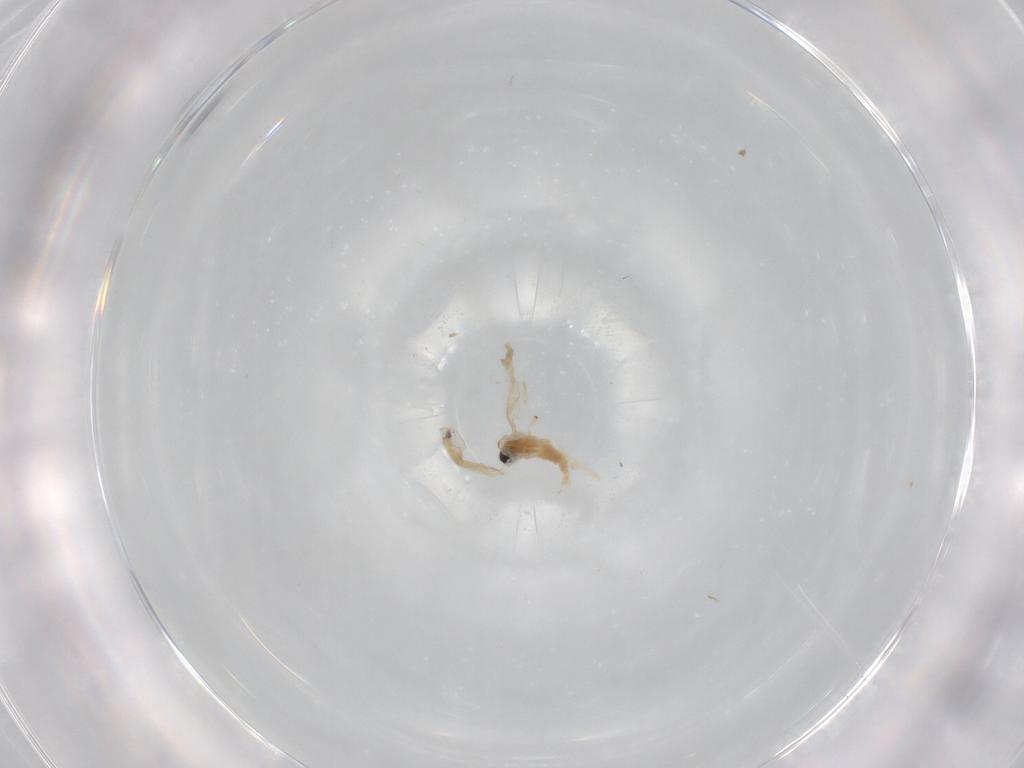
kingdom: Animalia
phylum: Arthropoda
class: Insecta
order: Diptera
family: Cecidomyiidae
